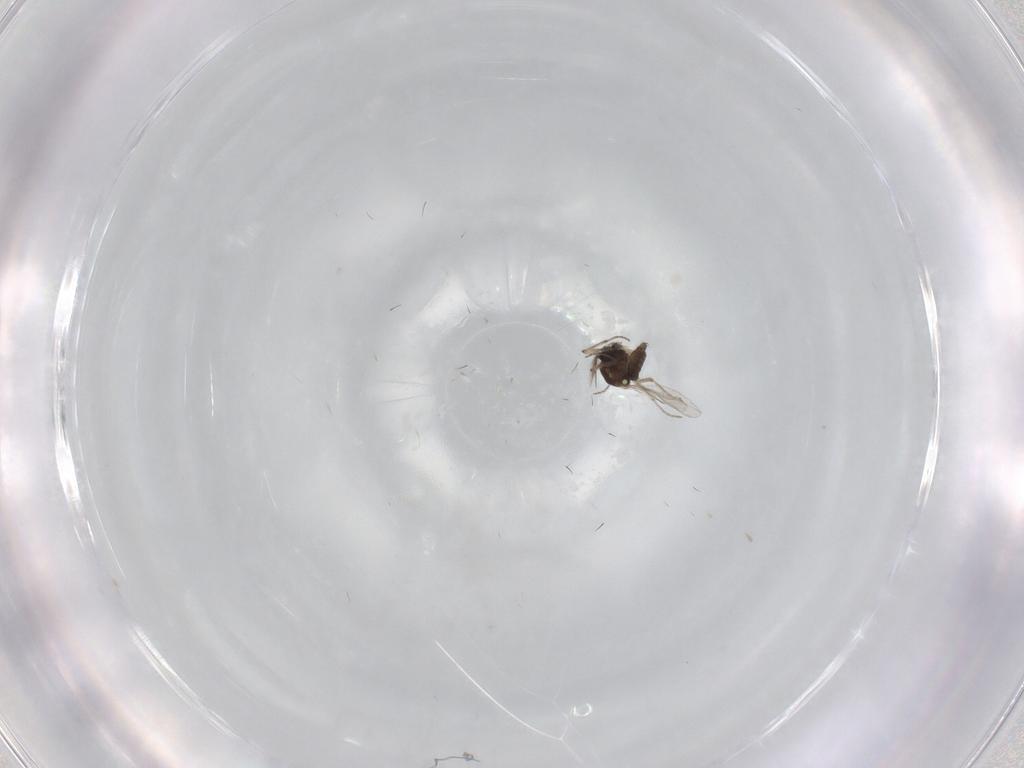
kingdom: Animalia
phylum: Arthropoda
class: Insecta
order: Diptera
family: Ceratopogonidae
